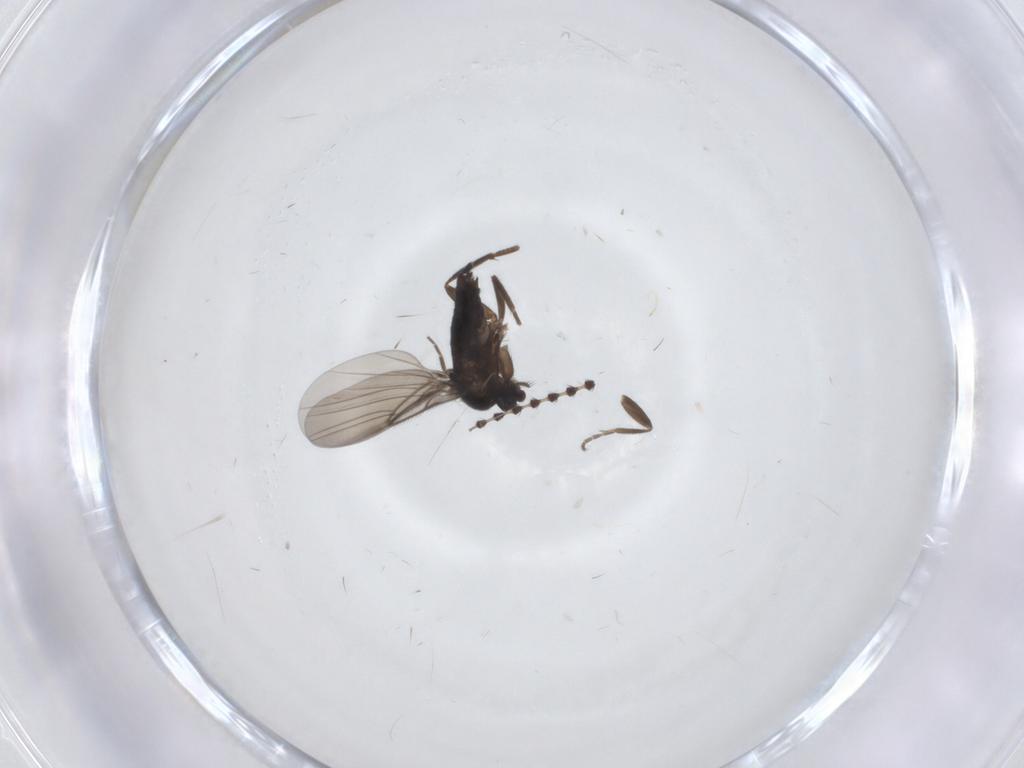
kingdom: Animalia
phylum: Arthropoda
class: Insecta
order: Diptera
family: Sciaridae
